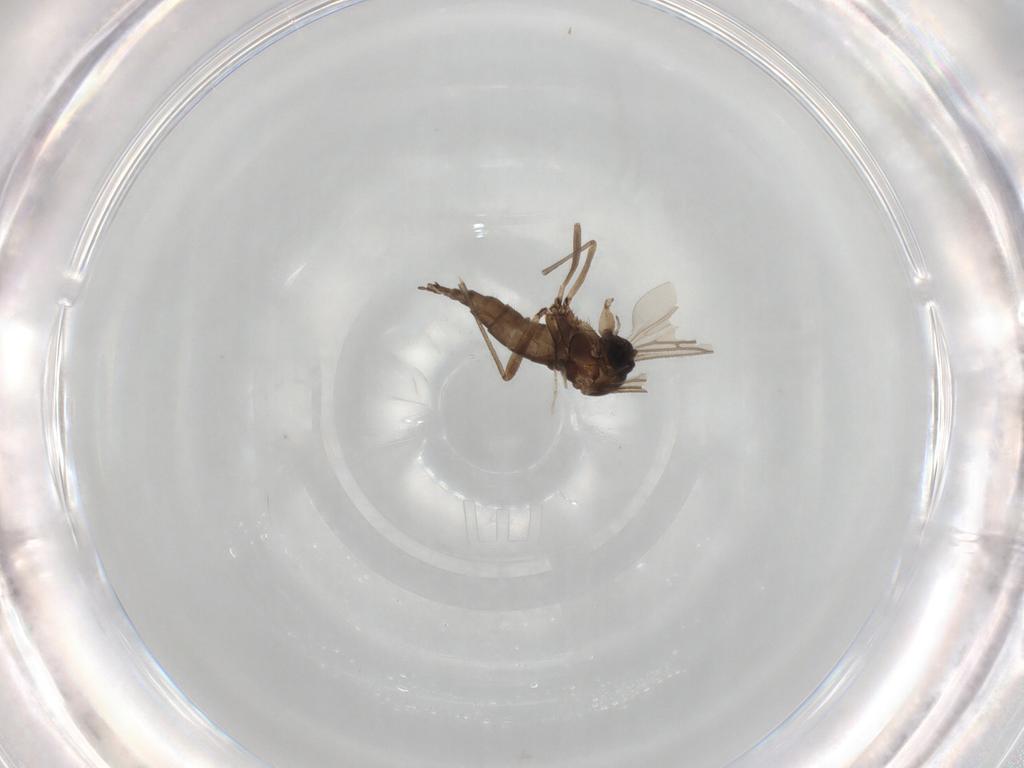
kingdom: Animalia
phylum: Arthropoda
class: Insecta
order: Diptera
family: Sciaridae
